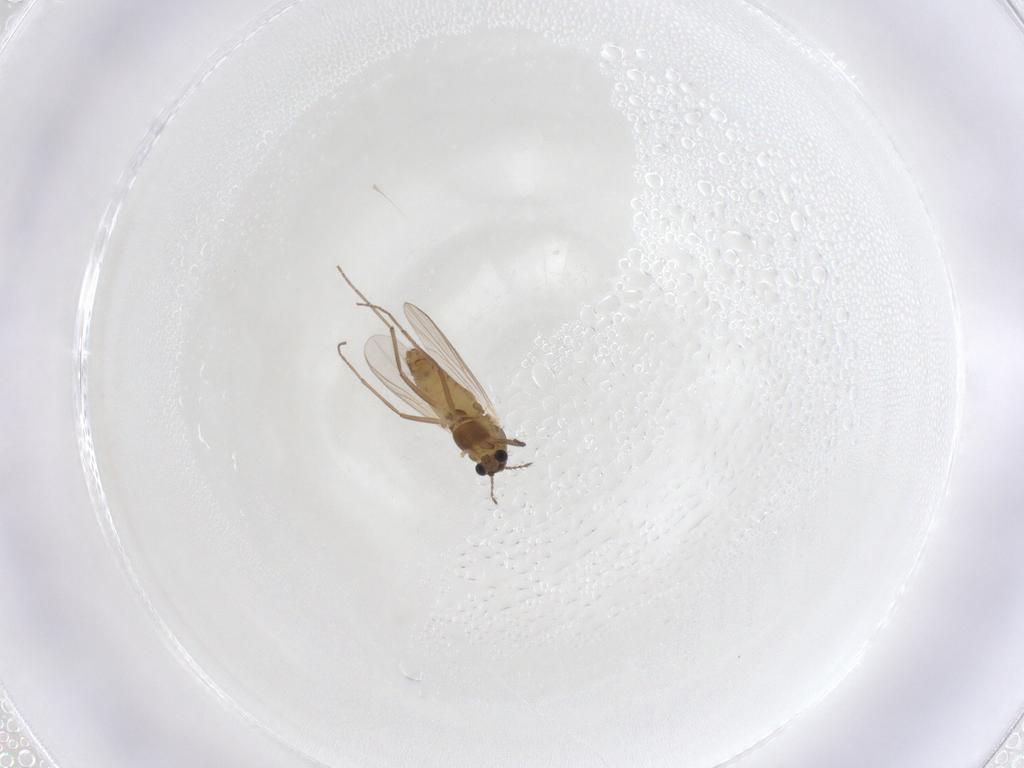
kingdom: Animalia
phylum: Arthropoda
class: Insecta
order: Diptera
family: Chironomidae
